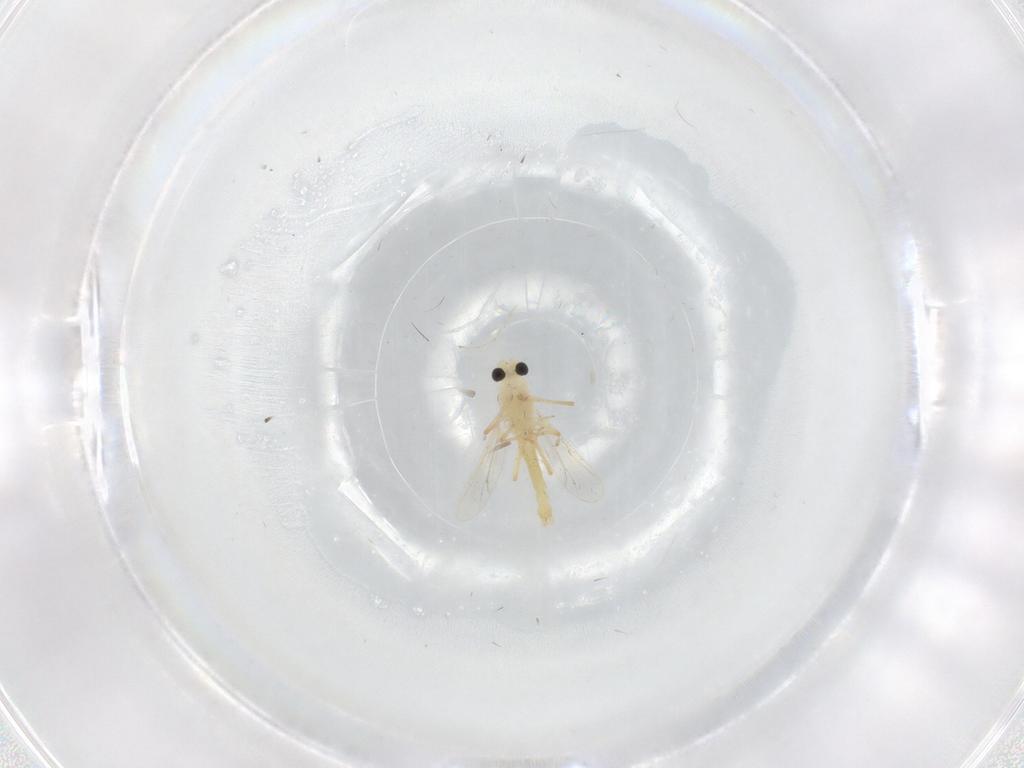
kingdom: Animalia
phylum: Arthropoda
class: Insecta
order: Diptera
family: Chironomidae
